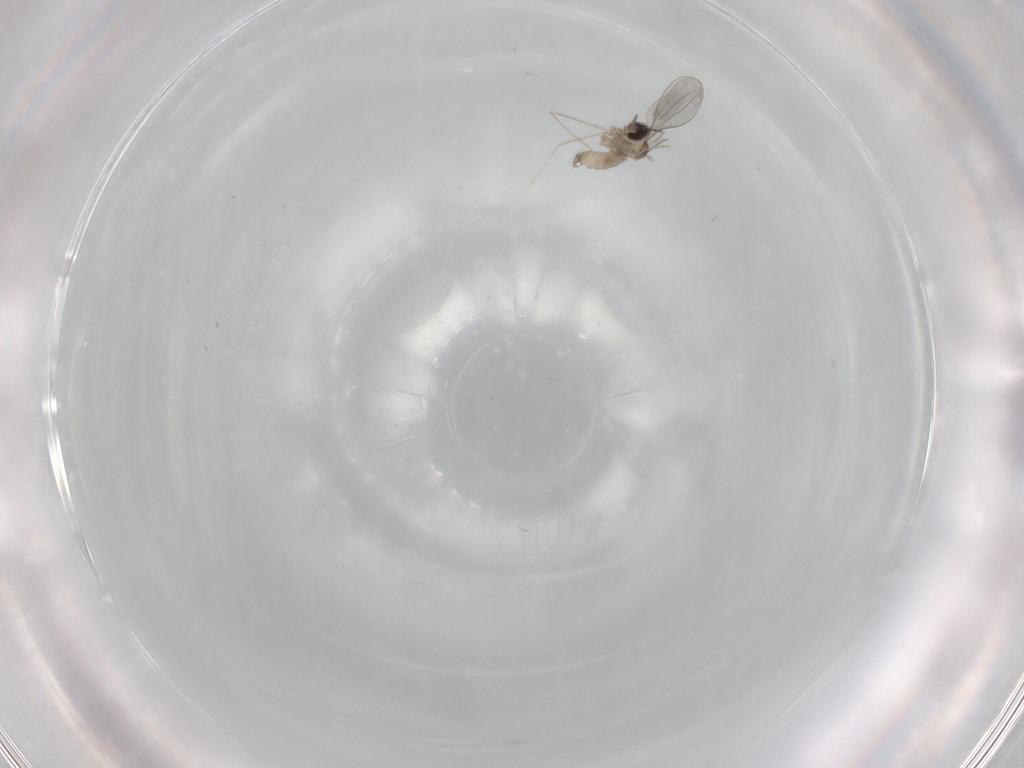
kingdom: Animalia
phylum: Arthropoda
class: Insecta
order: Diptera
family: Cecidomyiidae
